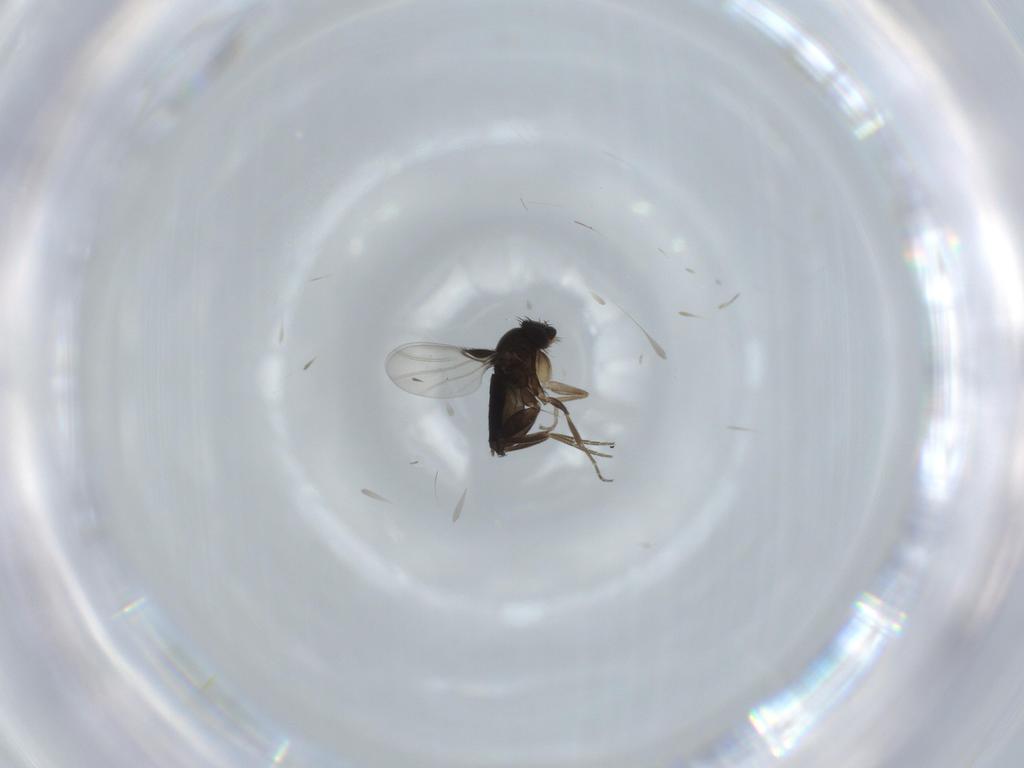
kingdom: Animalia
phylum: Arthropoda
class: Insecta
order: Diptera
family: Phoridae
